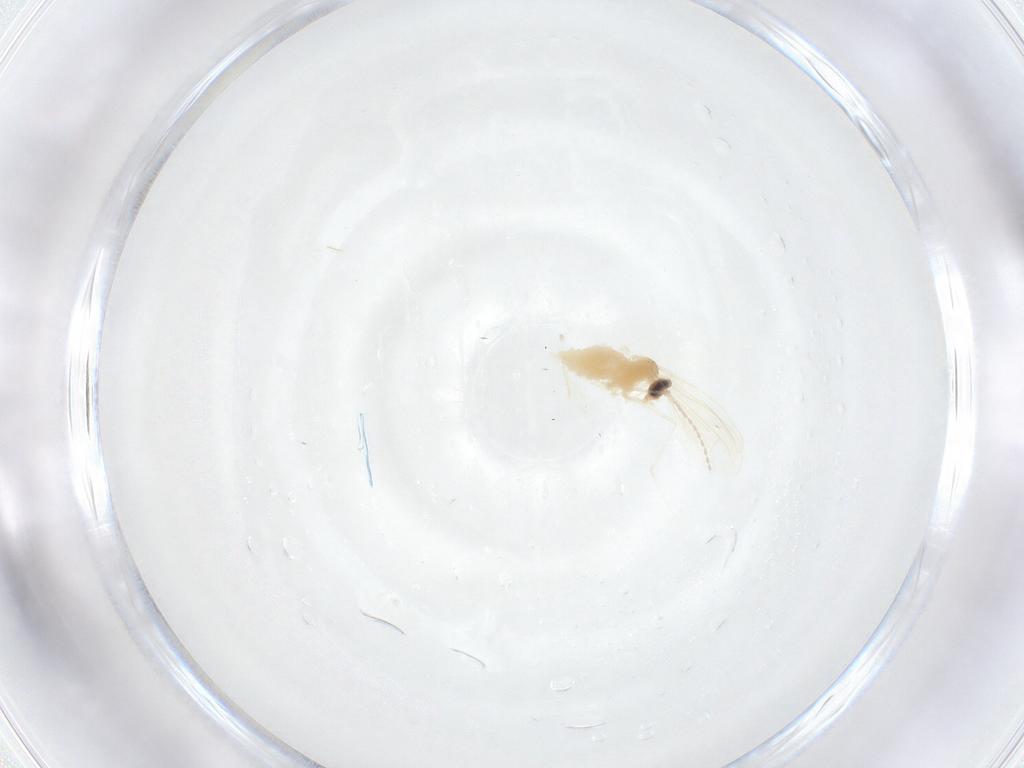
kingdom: Animalia
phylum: Arthropoda
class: Insecta
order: Diptera
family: Cecidomyiidae
